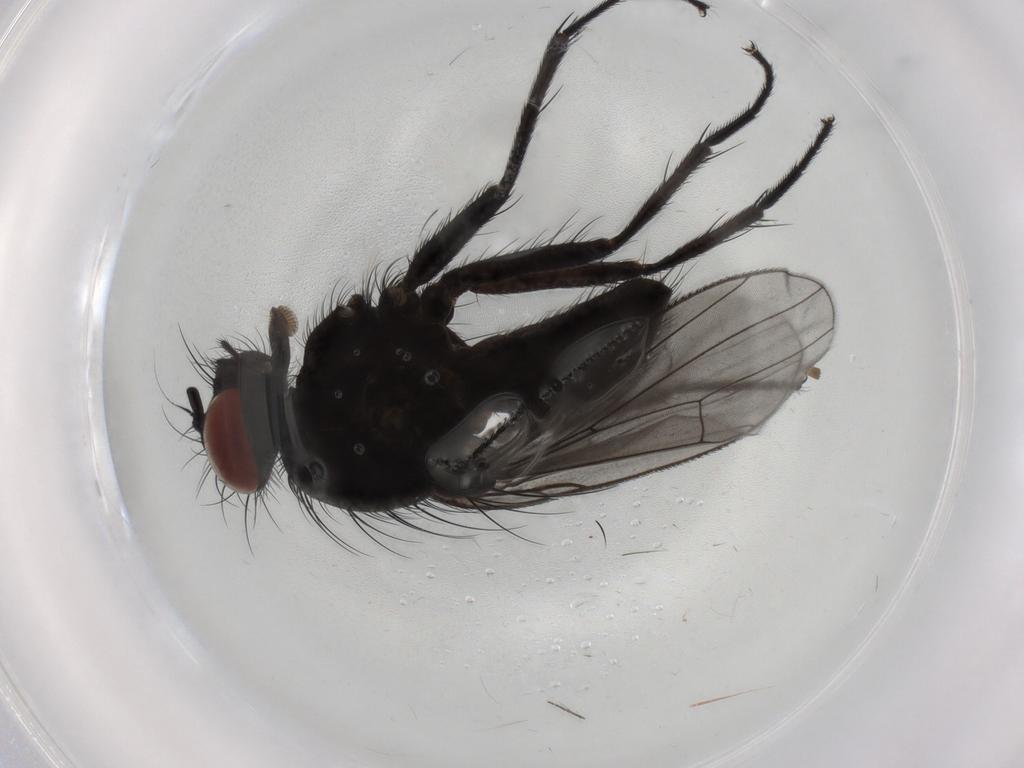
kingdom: Animalia
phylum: Arthropoda
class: Insecta
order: Diptera
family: Muscidae
